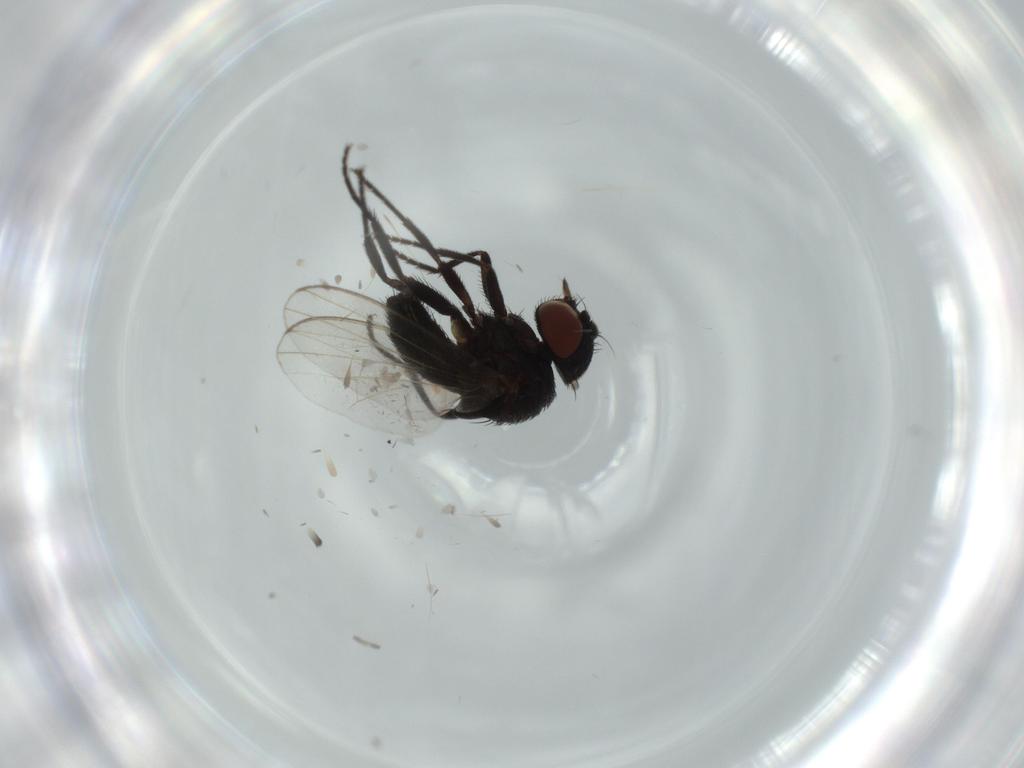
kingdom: Animalia
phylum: Arthropoda
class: Insecta
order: Diptera
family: Milichiidae
